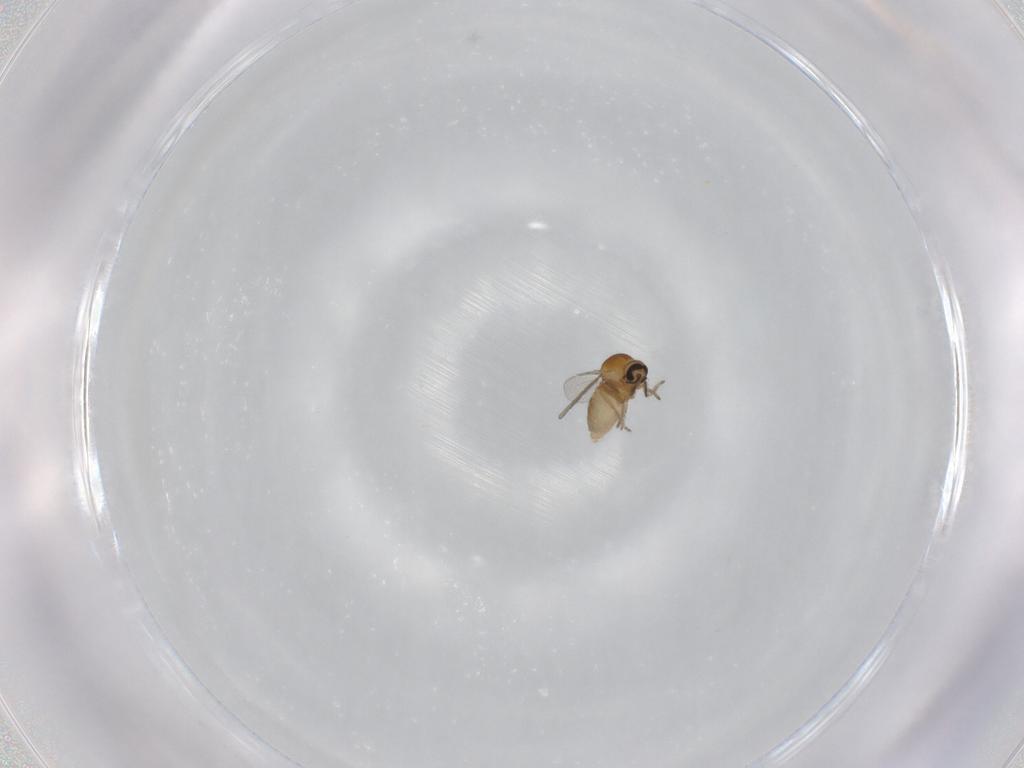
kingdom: Animalia
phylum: Arthropoda
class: Insecta
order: Diptera
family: Ceratopogonidae
